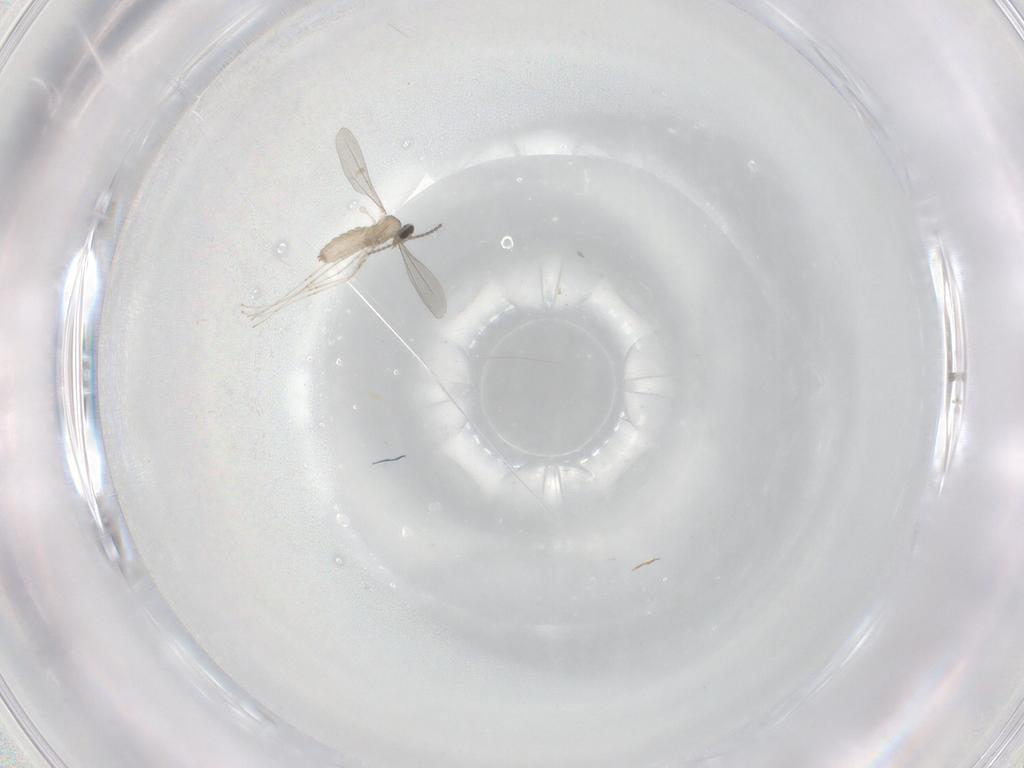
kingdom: Animalia
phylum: Arthropoda
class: Insecta
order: Diptera
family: Cecidomyiidae
